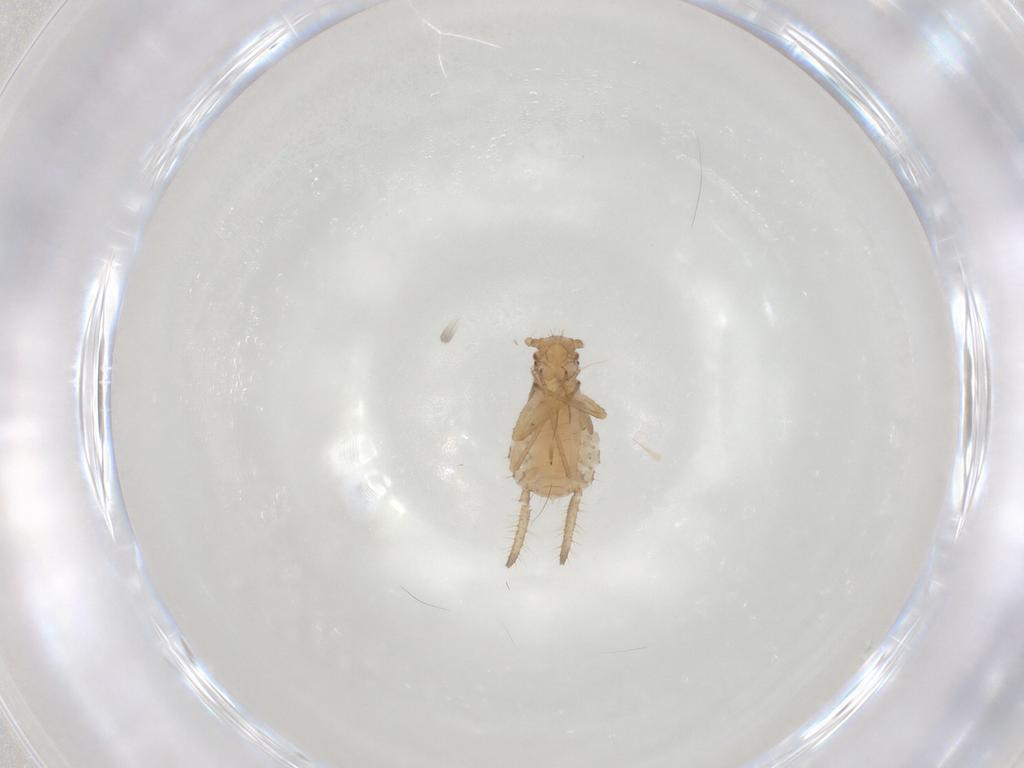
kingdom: Animalia
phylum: Arthropoda
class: Insecta
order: Hemiptera
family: Aphididae
